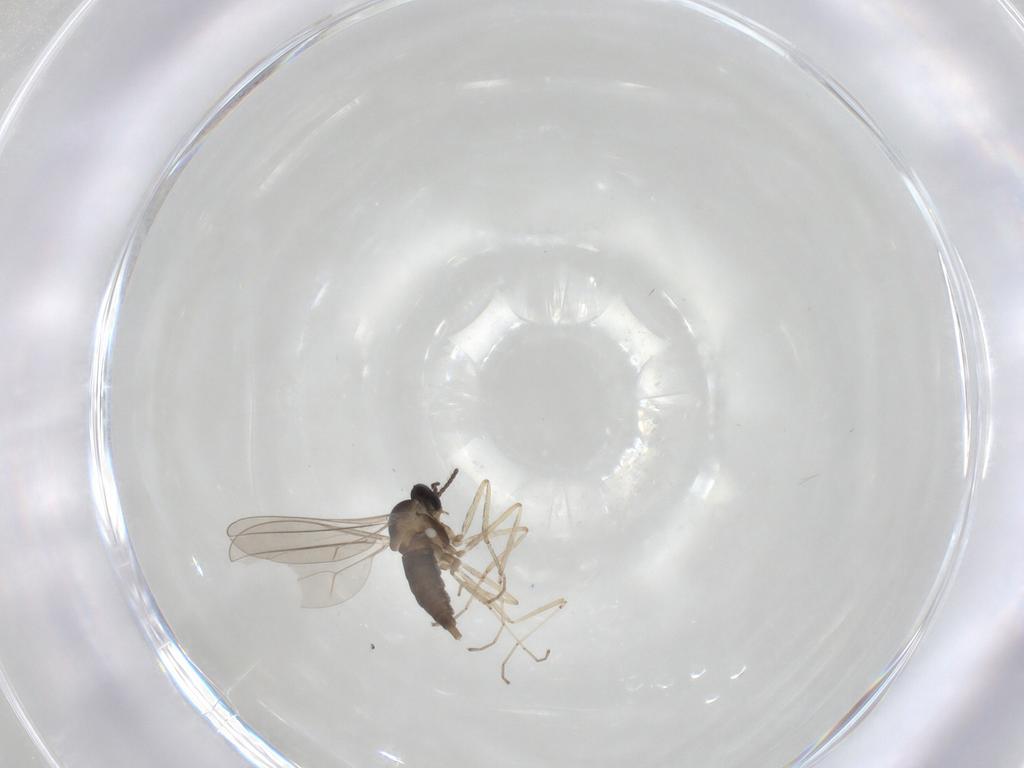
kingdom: Animalia
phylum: Arthropoda
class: Insecta
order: Diptera
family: Cecidomyiidae
